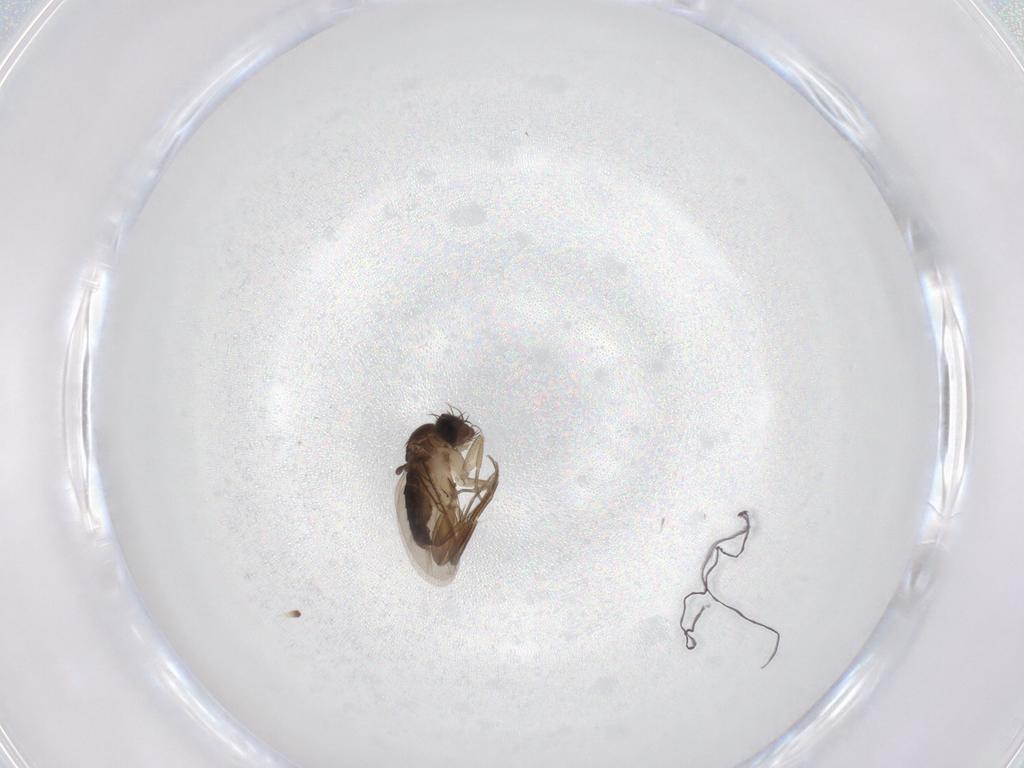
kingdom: Animalia
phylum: Arthropoda
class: Insecta
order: Diptera
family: Phoridae
